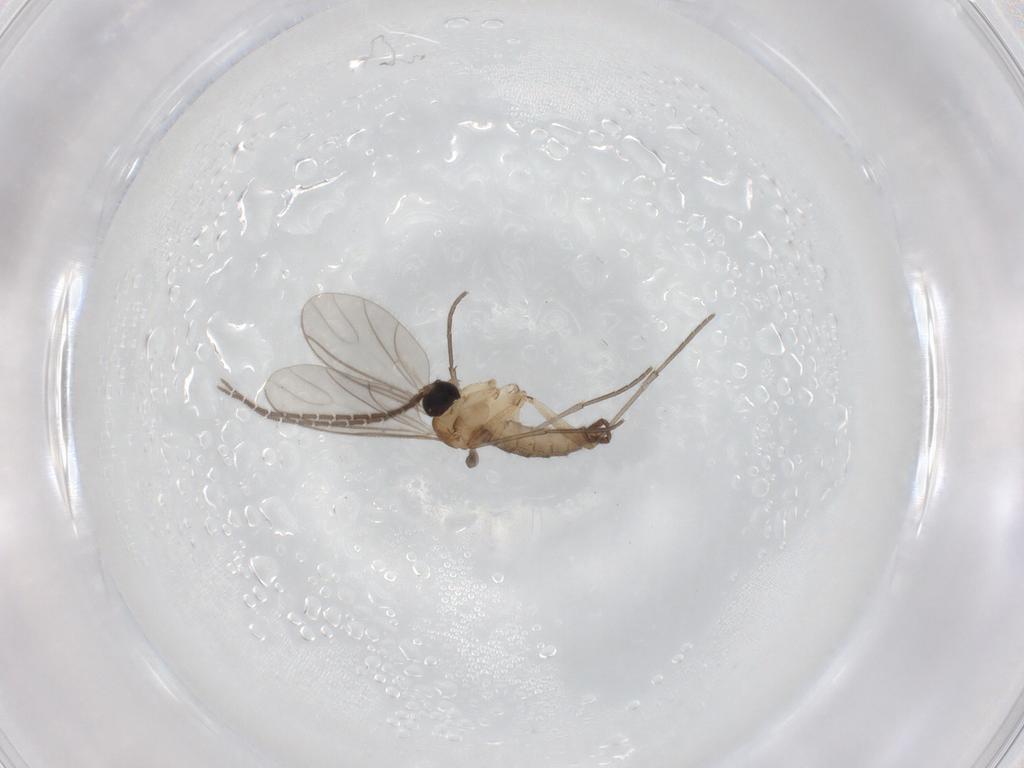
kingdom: Animalia
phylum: Arthropoda
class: Insecta
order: Diptera
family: Sciaridae
